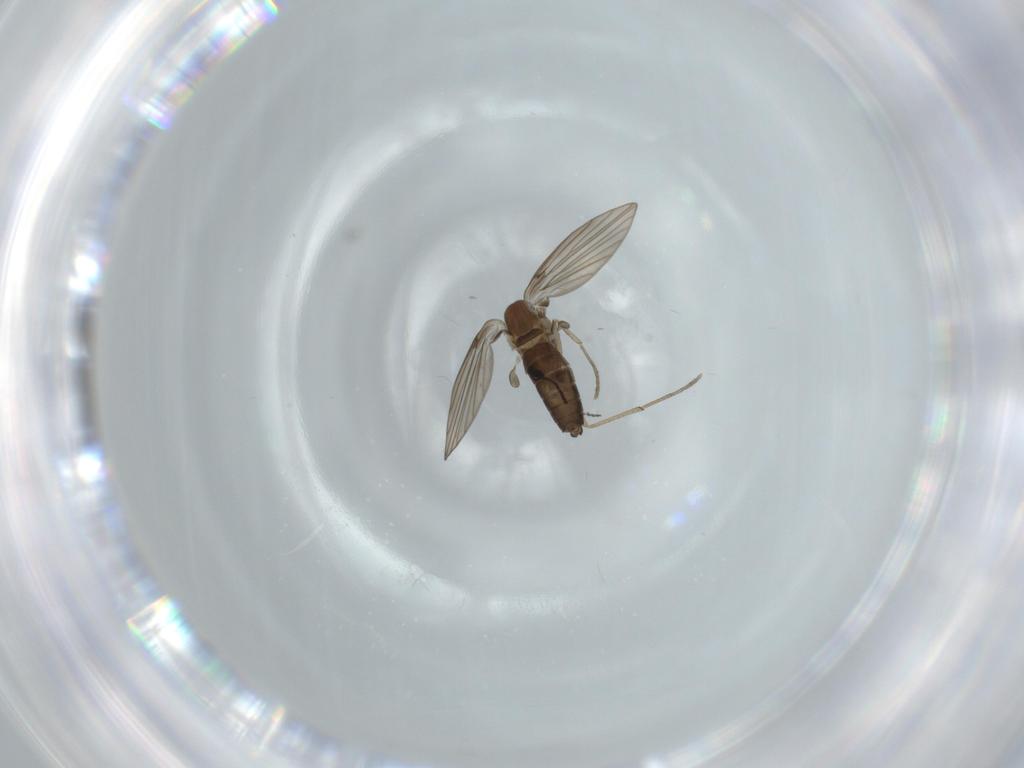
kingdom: Animalia
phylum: Arthropoda
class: Insecta
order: Diptera
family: Psychodidae
